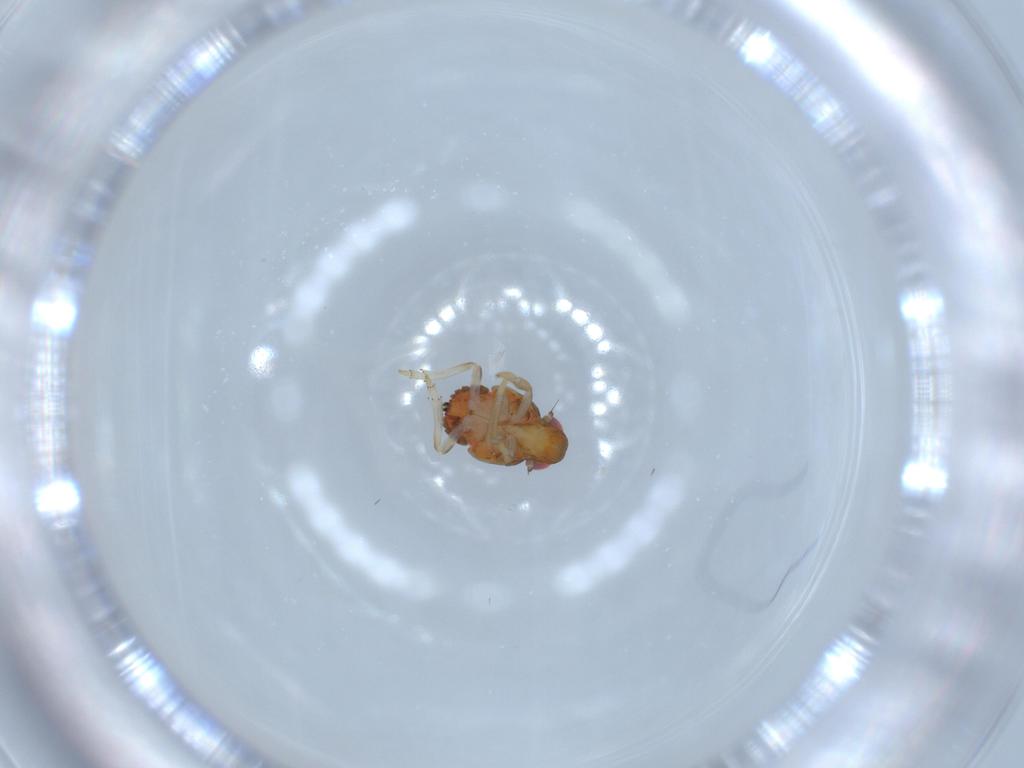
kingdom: Animalia
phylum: Arthropoda
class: Insecta
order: Hemiptera
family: Issidae
